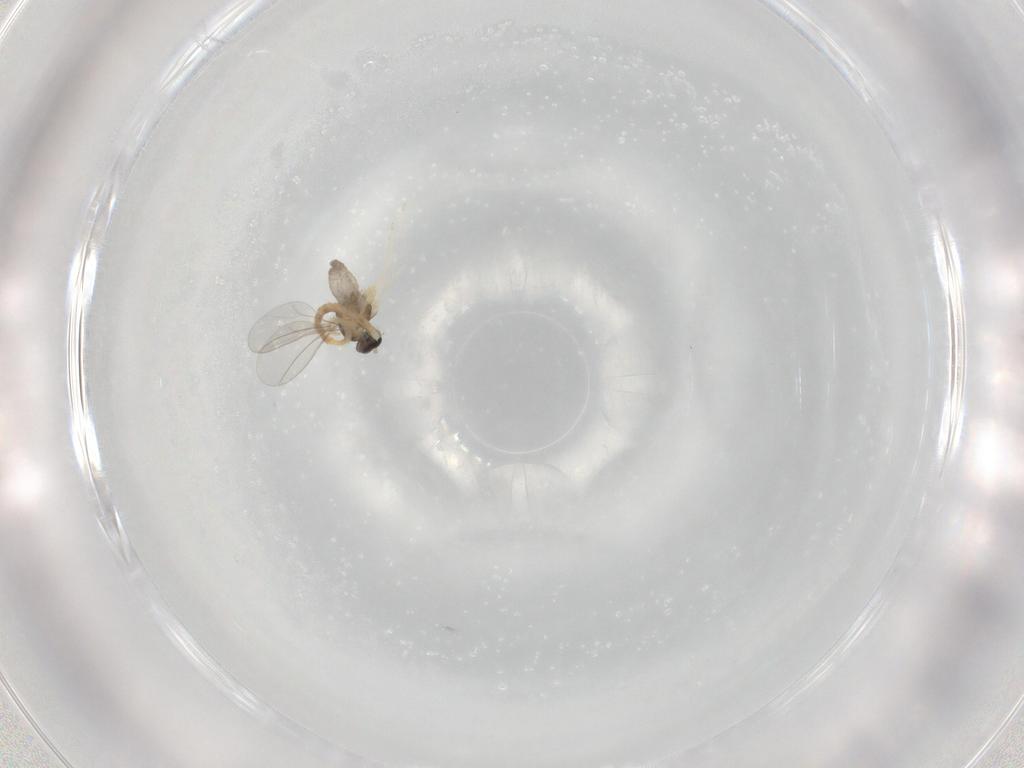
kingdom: Animalia
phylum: Arthropoda
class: Insecta
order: Diptera
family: Cecidomyiidae
